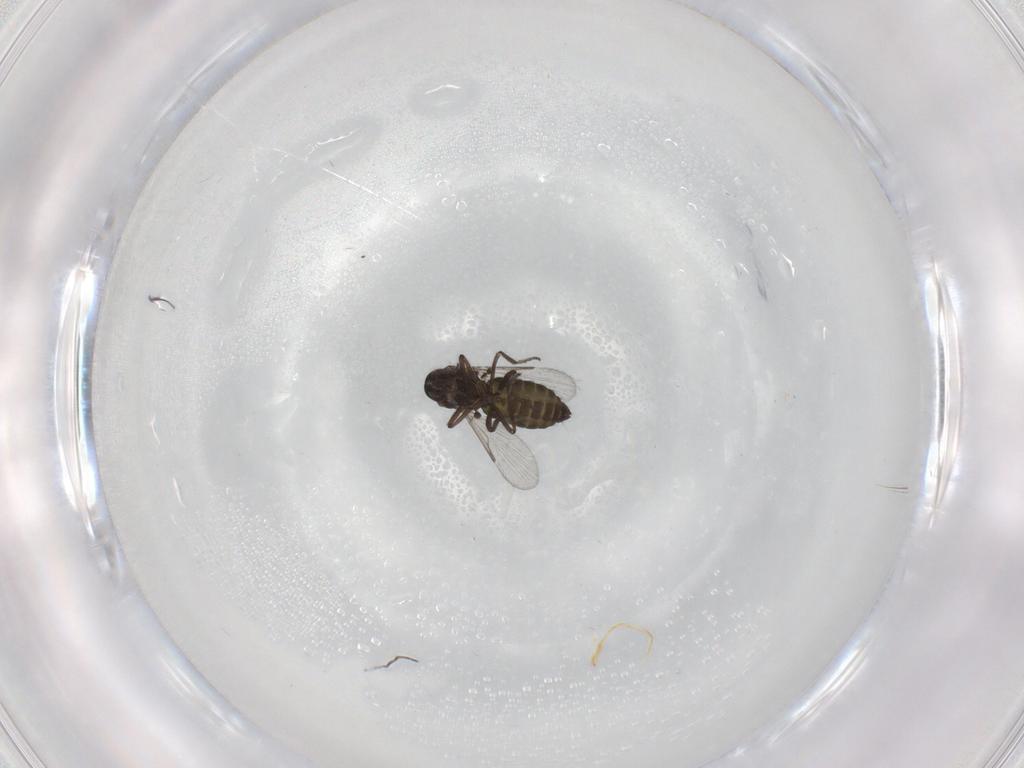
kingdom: Animalia
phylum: Arthropoda
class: Insecta
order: Diptera
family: Ceratopogonidae
